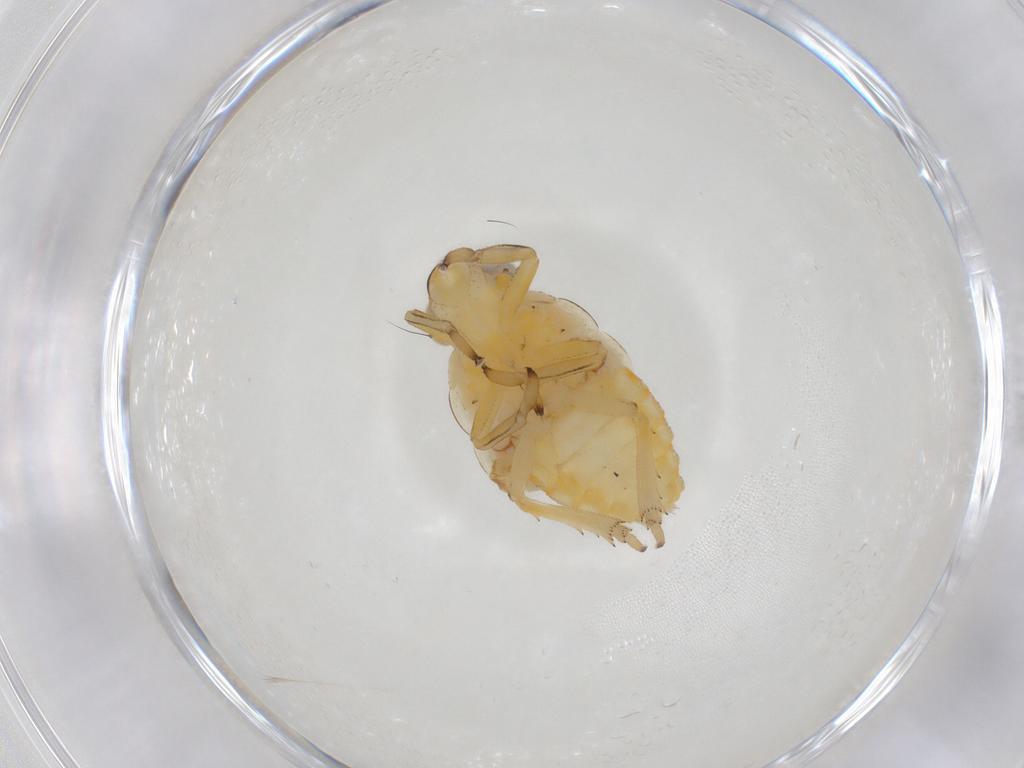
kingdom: Animalia
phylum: Arthropoda
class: Insecta
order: Hemiptera
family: Issidae
